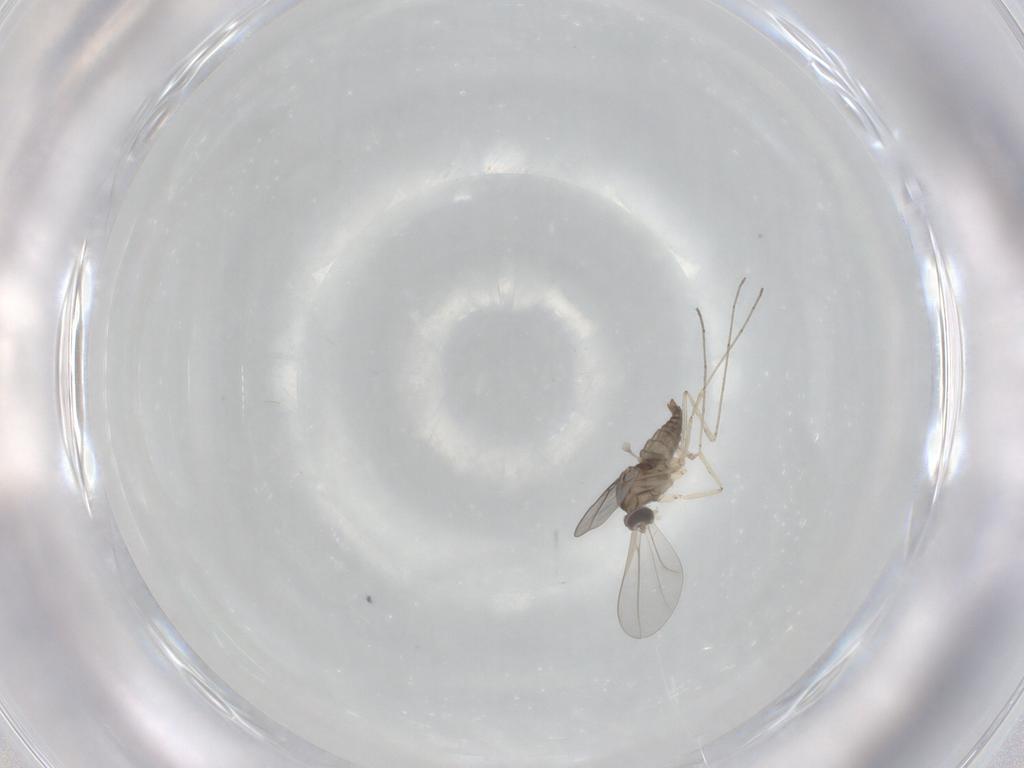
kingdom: Animalia
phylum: Arthropoda
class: Insecta
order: Diptera
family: Cecidomyiidae
